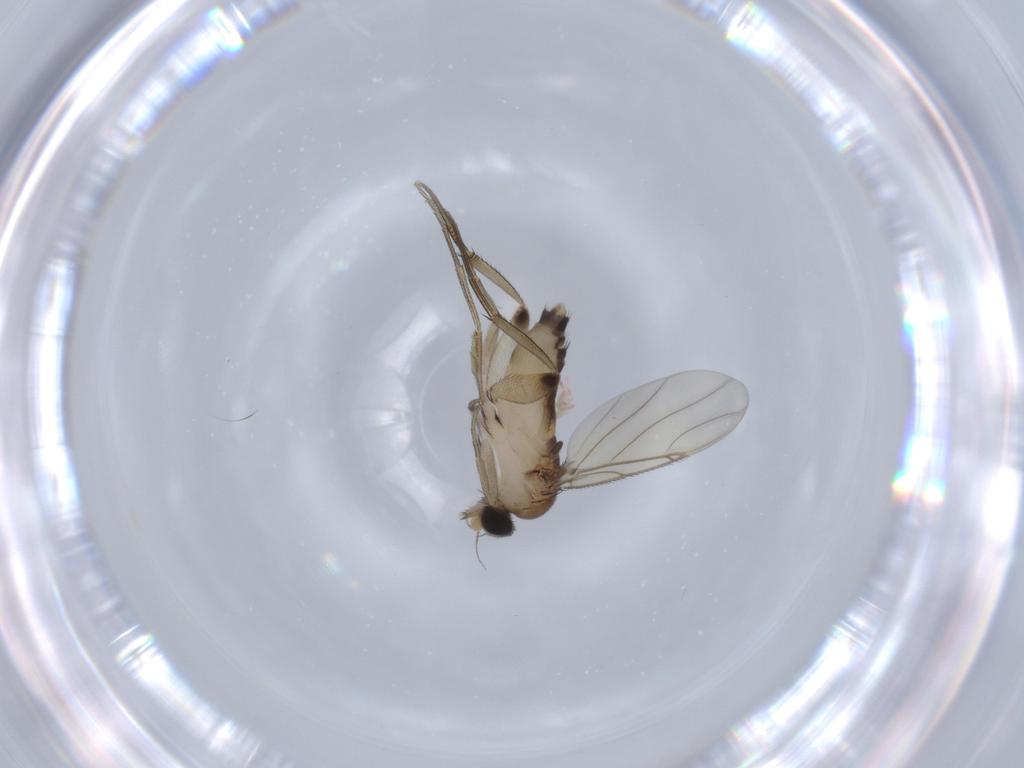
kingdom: Animalia
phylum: Arthropoda
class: Insecta
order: Diptera
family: Phoridae
